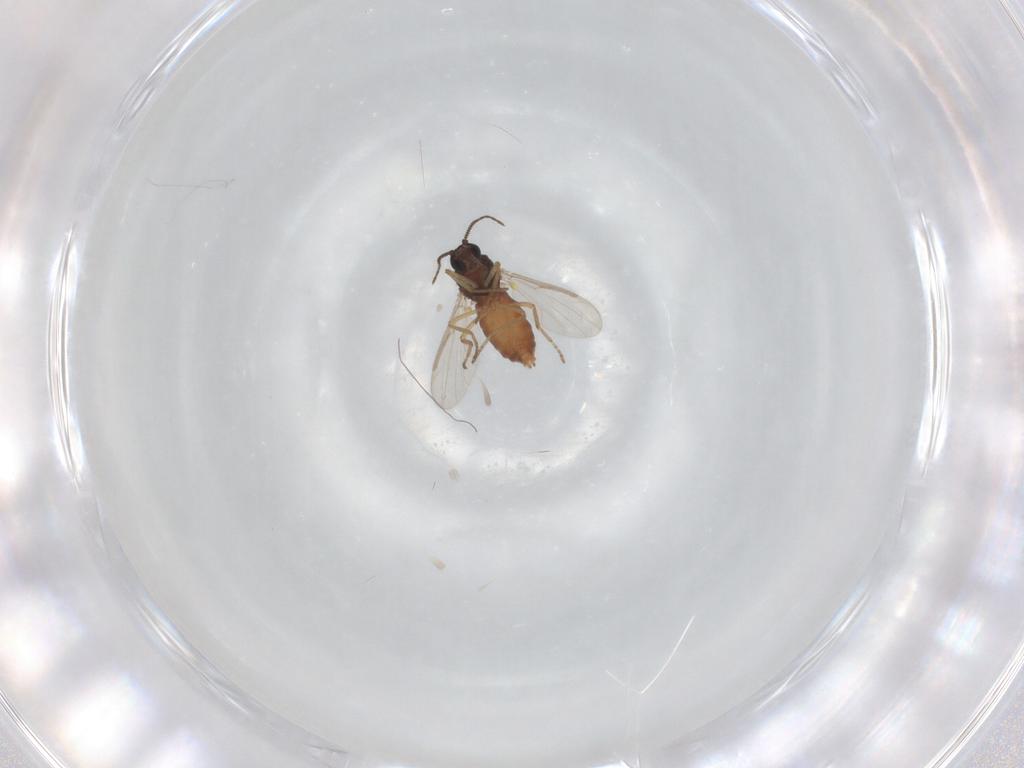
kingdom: Animalia
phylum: Arthropoda
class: Insecta
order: Diptera
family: Ceratopogonidae
